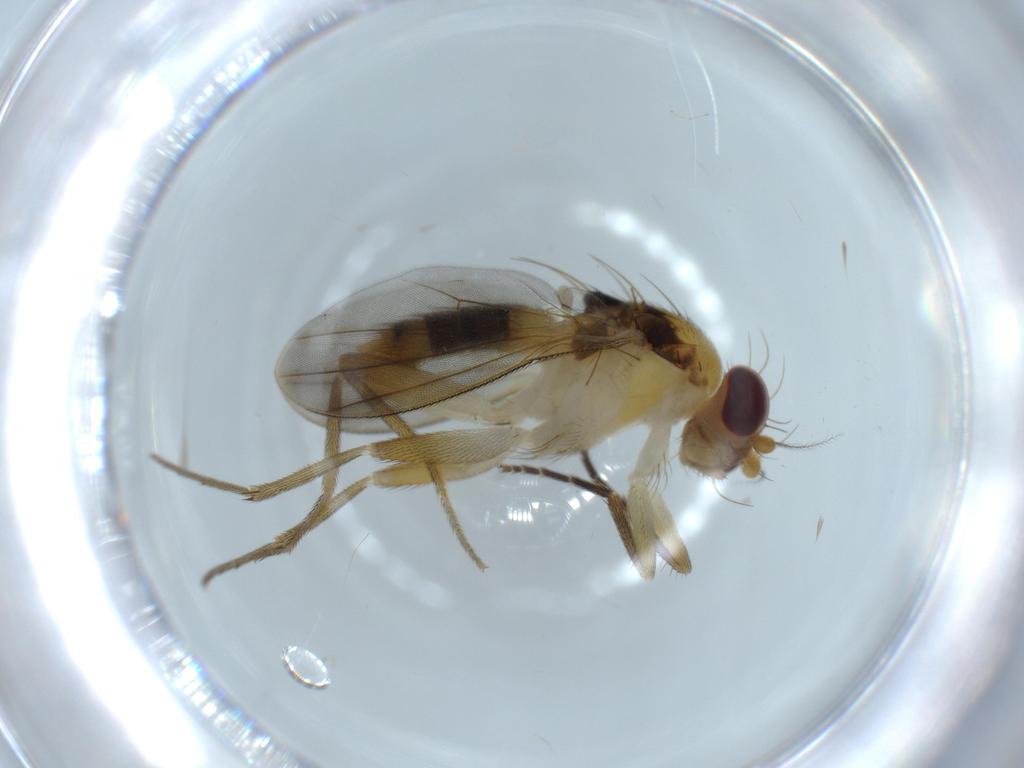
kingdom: Animalia
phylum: Arthropoda
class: Insecta
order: Diptera
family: Clusiidae
